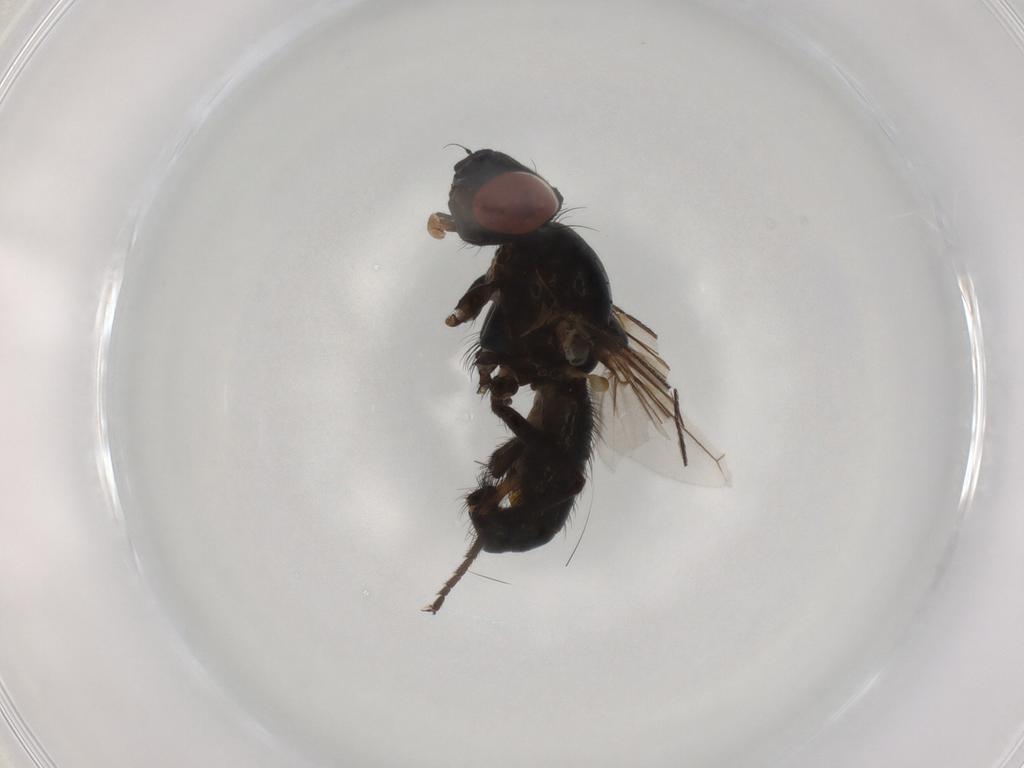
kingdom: Animalia
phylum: Arthropoda
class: Insecta
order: Diptera
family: Anthomyiidae
